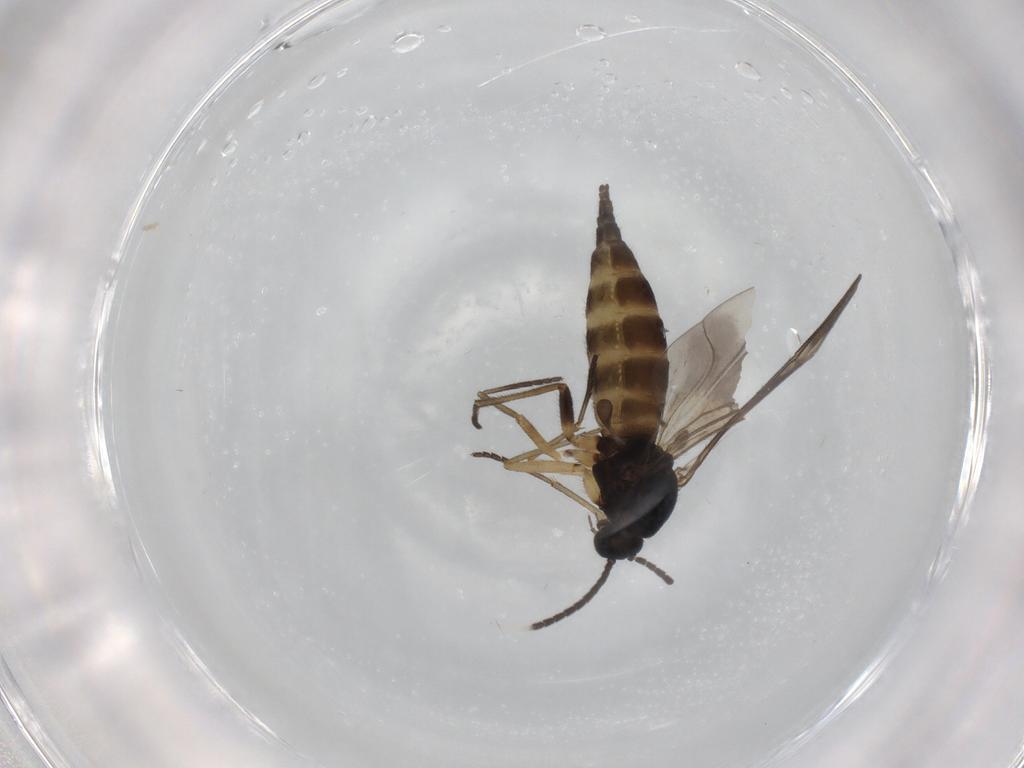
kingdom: Animalia
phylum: Arthropoda
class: Insecta
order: Diptera
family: Sciaridae
